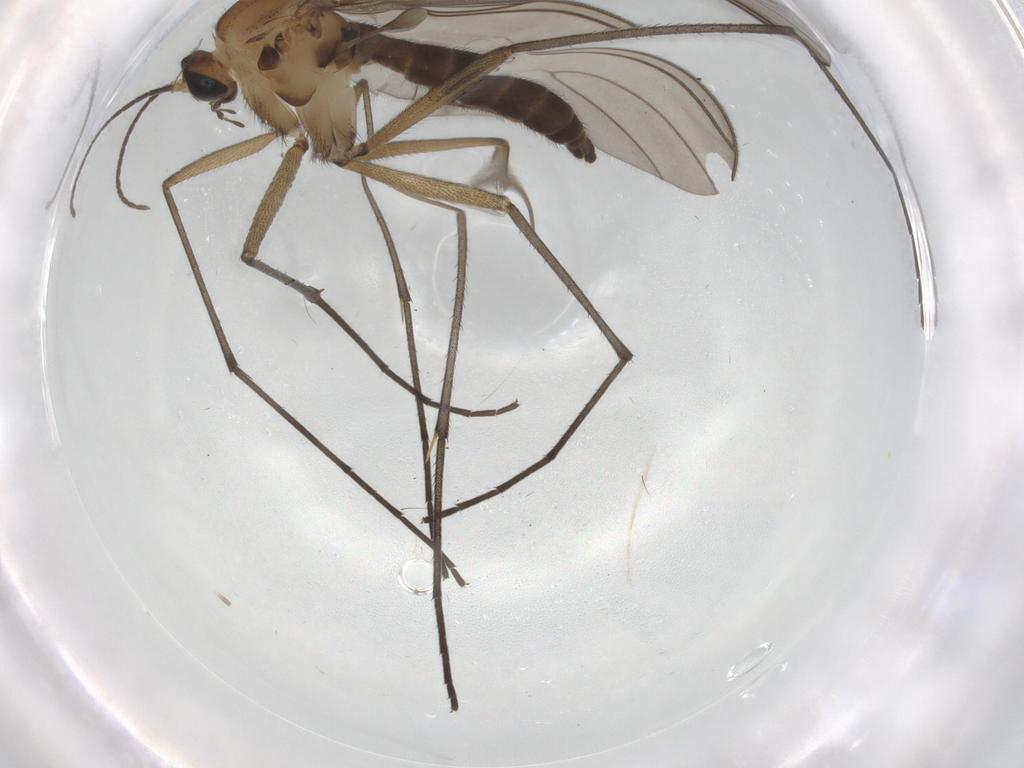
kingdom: Animalia
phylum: Arthropoda
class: Insecta
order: Diptera
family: Sciaridae
